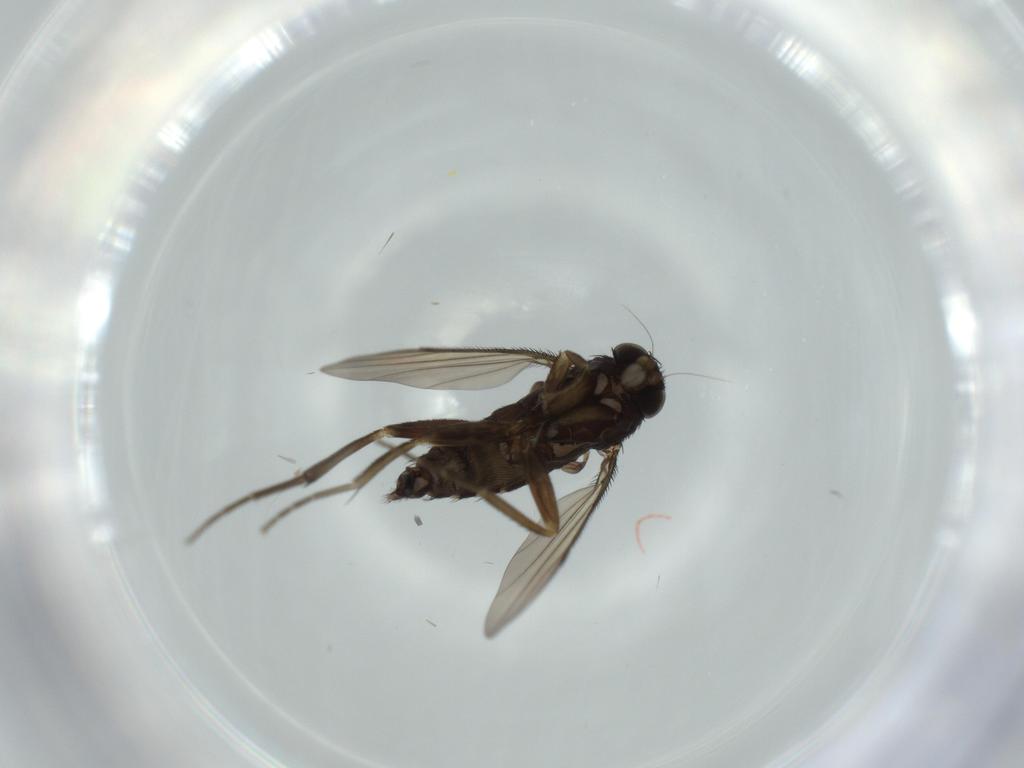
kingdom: Animalia
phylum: Arthropoda
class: Insecta
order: Diptera
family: Phoridae
